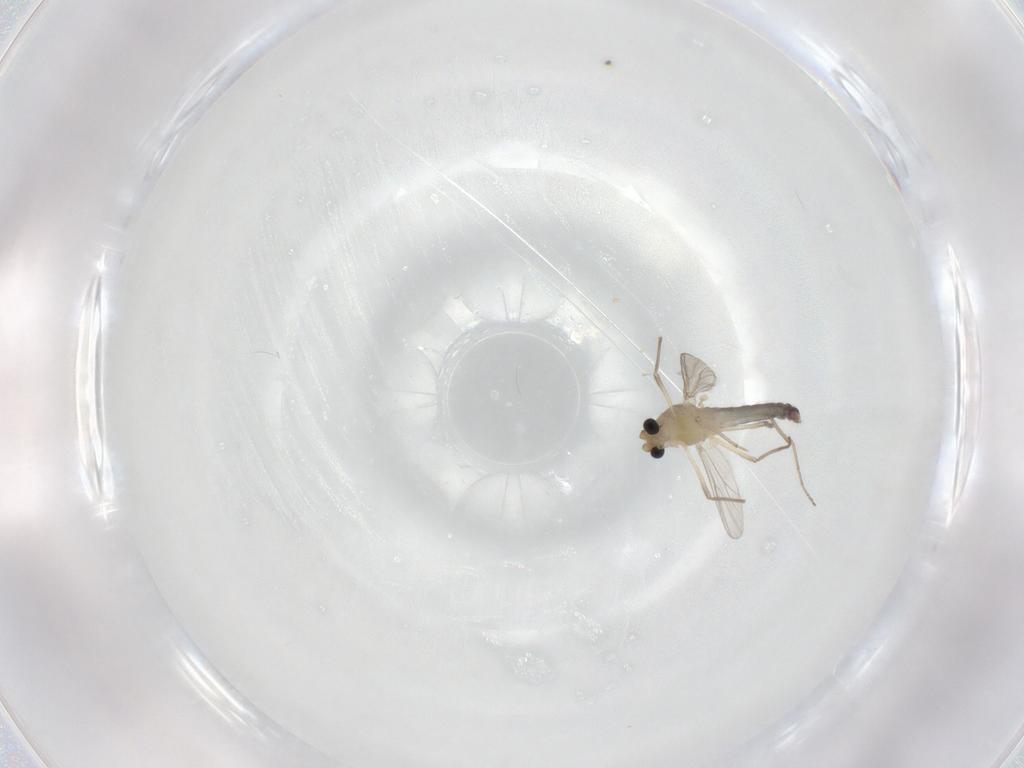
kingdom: Animalia
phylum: Arthropoda
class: Insecta
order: Diptera
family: Chironomidae
